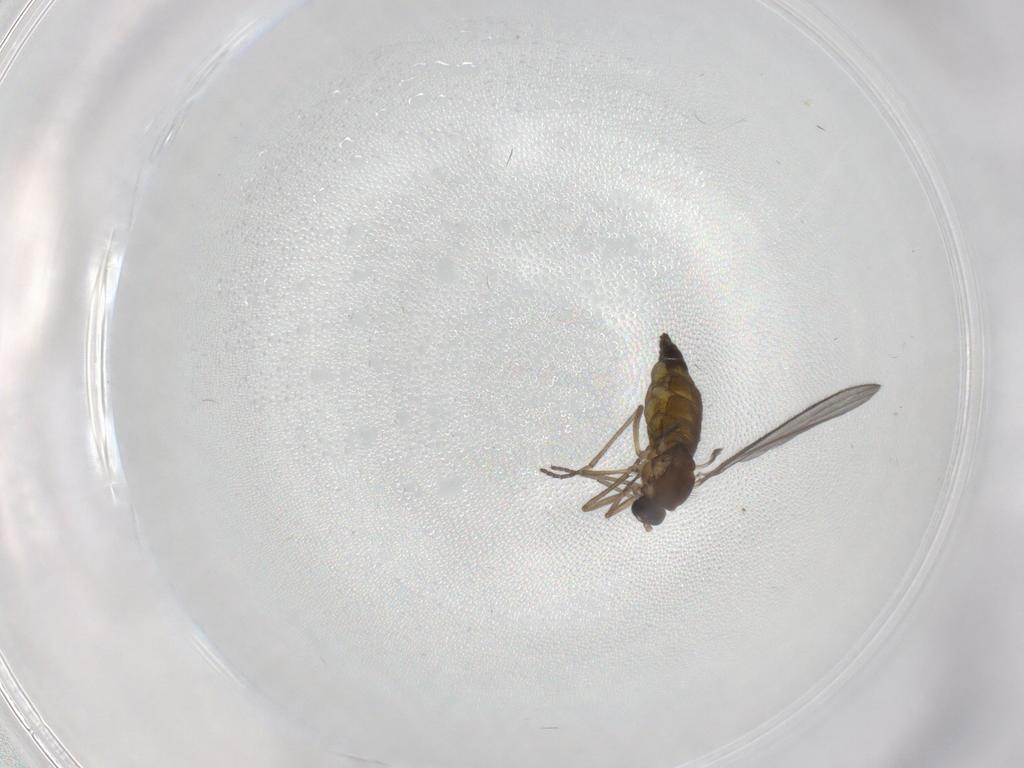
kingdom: Animalia
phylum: Arthropoda
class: Insecta
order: Diptera
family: Sciaridae
